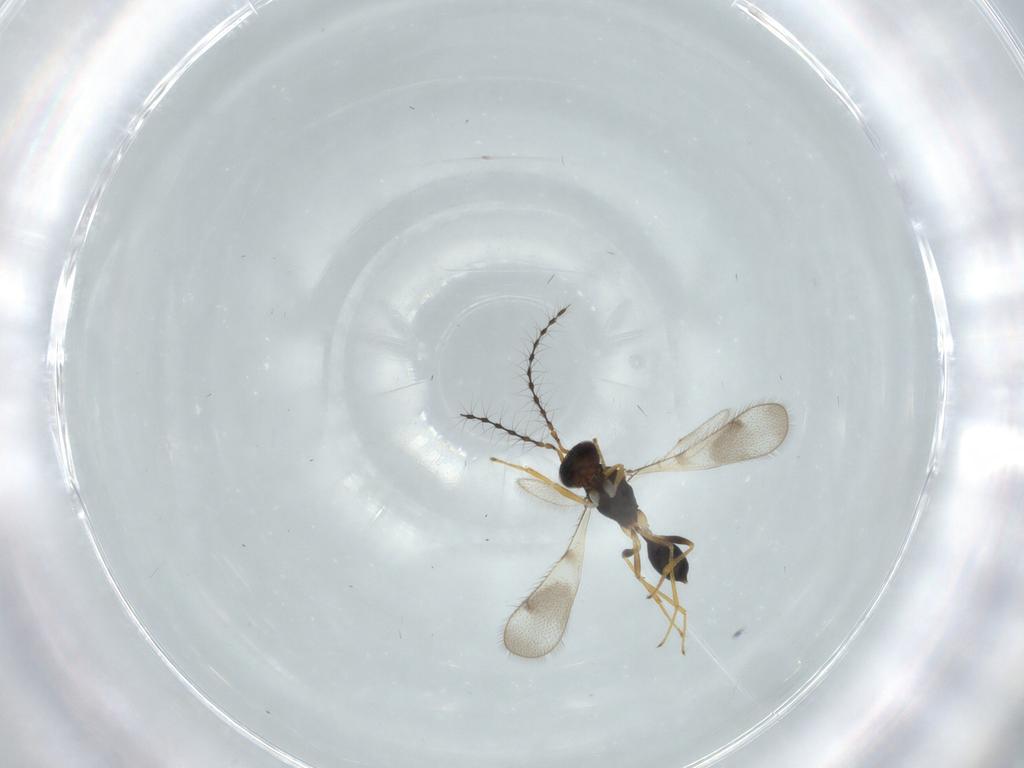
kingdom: Animalia
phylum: Arthropoda
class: Insecta
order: Hymenoptera
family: Diparidae
